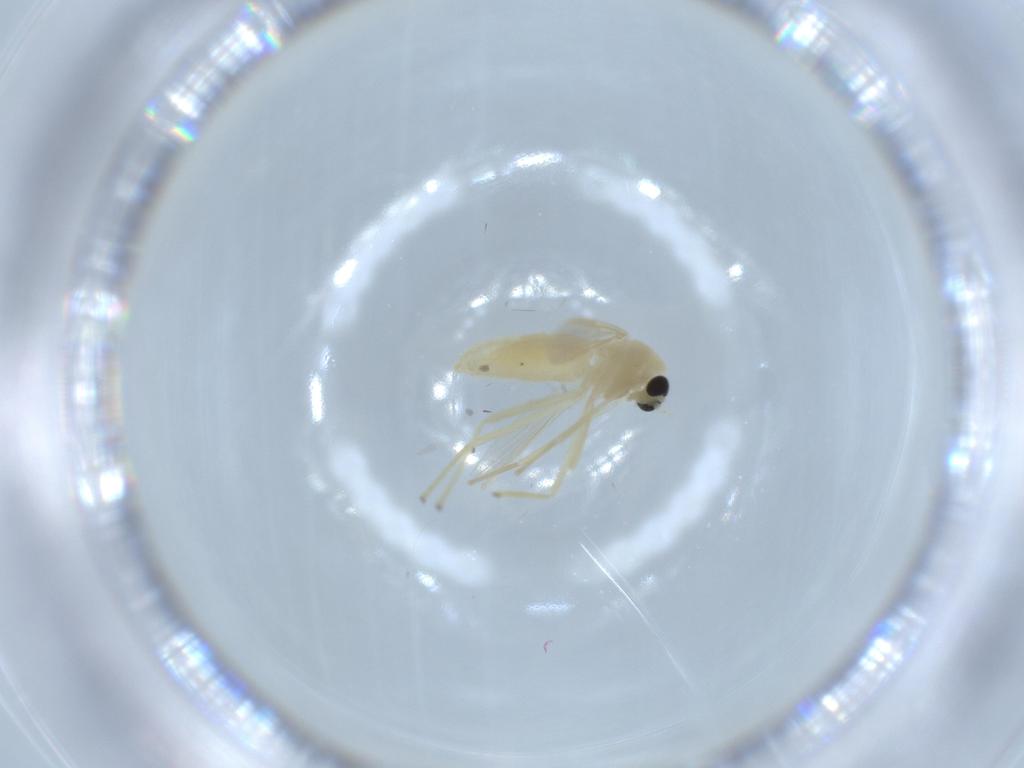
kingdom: Animalia
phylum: Arthropoda
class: Insecta
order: Diptera
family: Chironomidae
